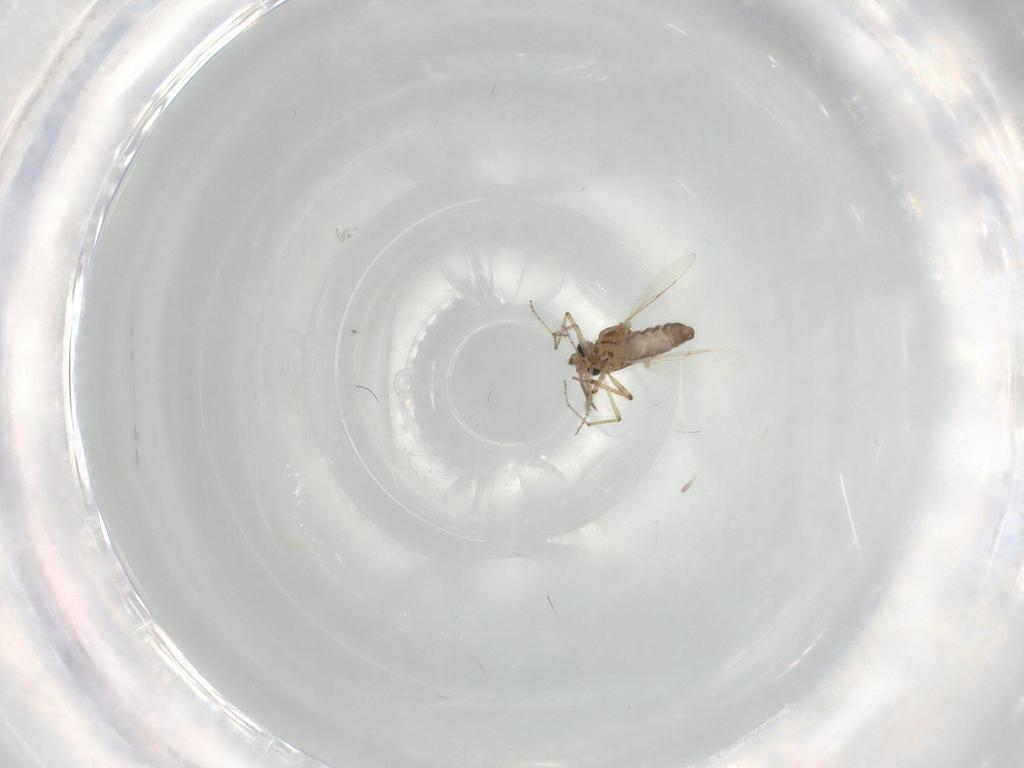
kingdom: Animalia
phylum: Arthropoda
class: Insecta
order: Diptera
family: Ceratopogonidae
